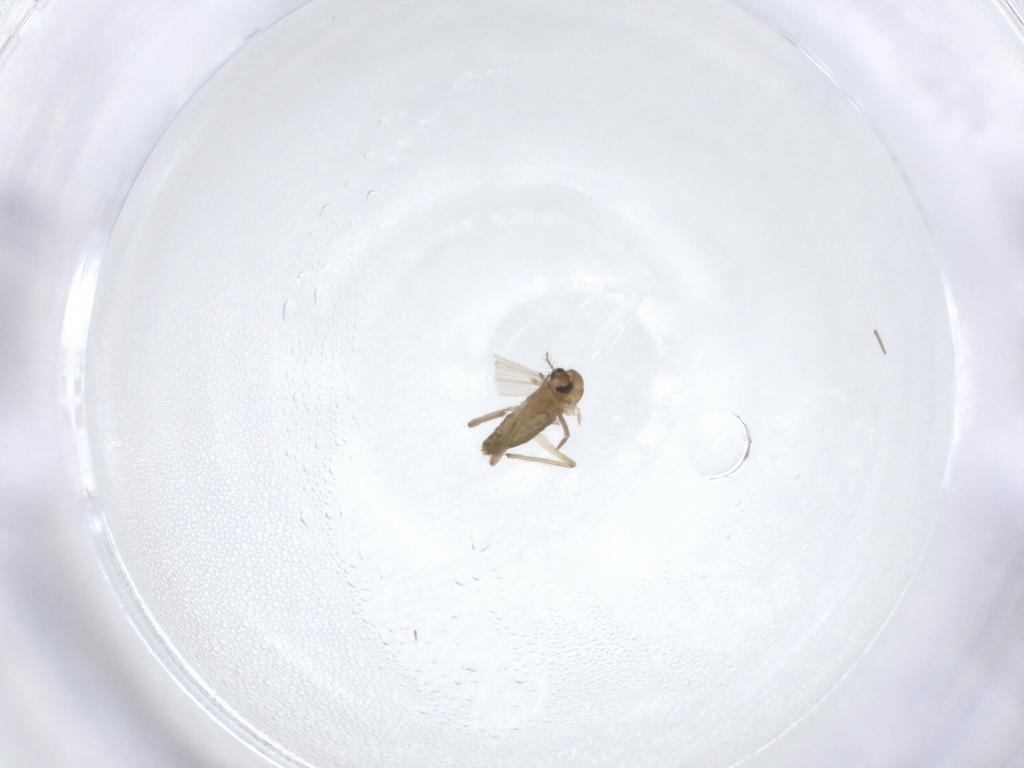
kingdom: Animalia
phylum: Arthropoda
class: Insecta
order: Diptera
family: Chironomidae
